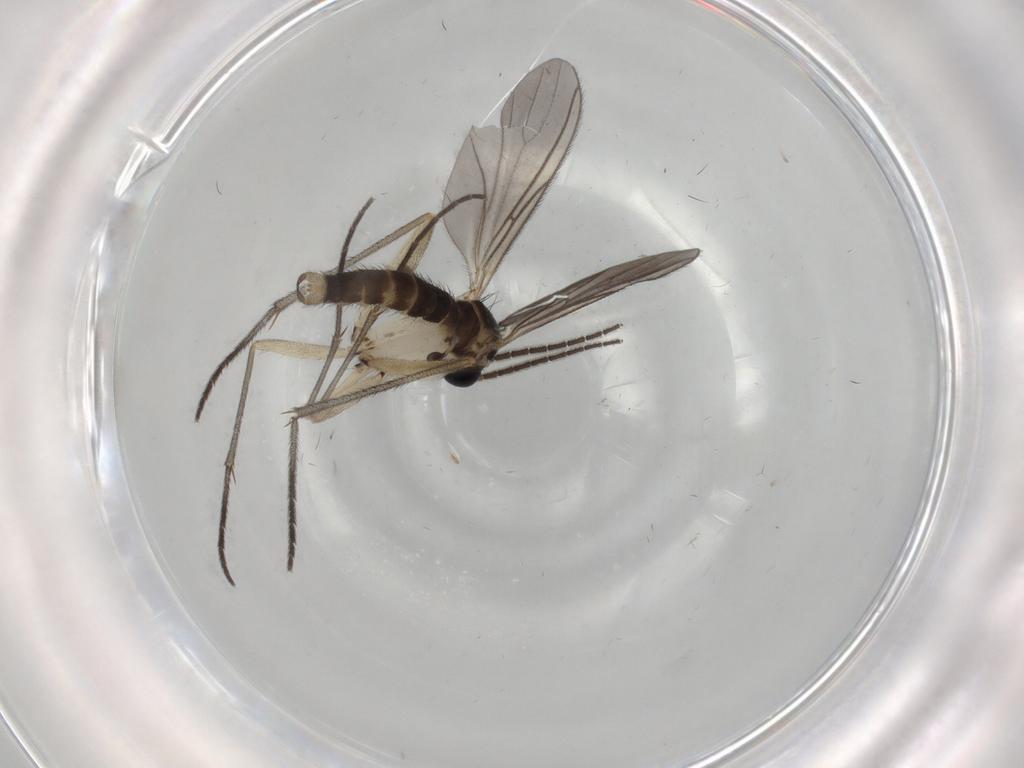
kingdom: Animalia
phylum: Arthropoda
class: Insecta
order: Diptera
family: Sciaridae
